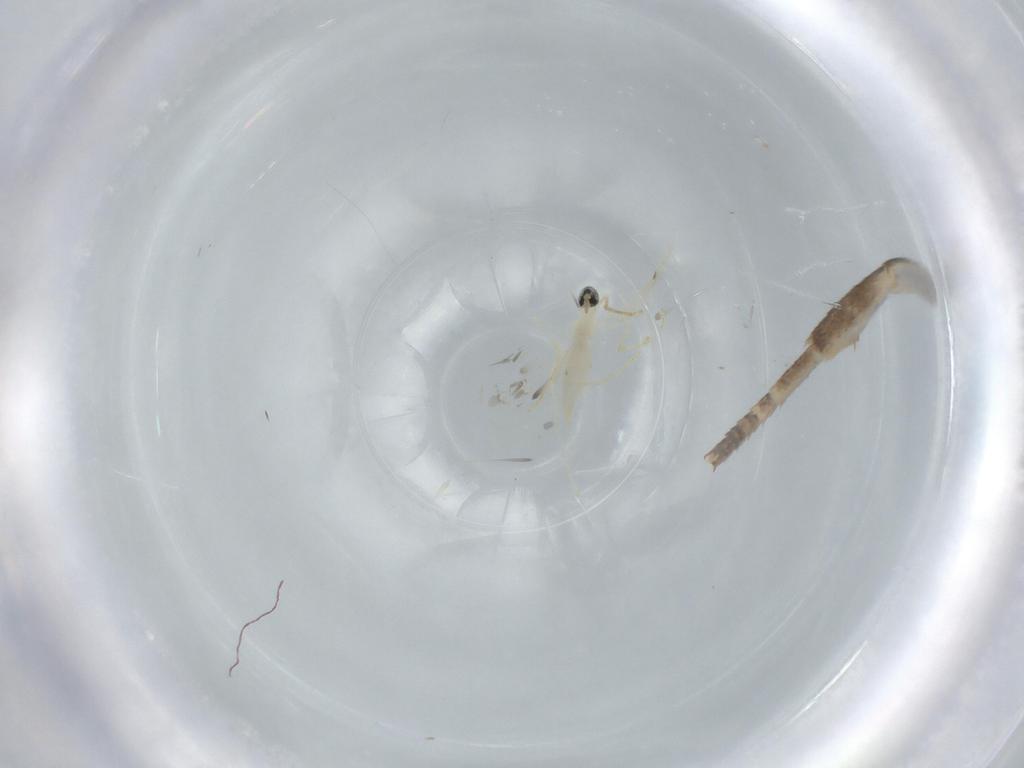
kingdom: Animalia
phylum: Arthropoda
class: Insecta
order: Diptera
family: Cecidomyiidae
